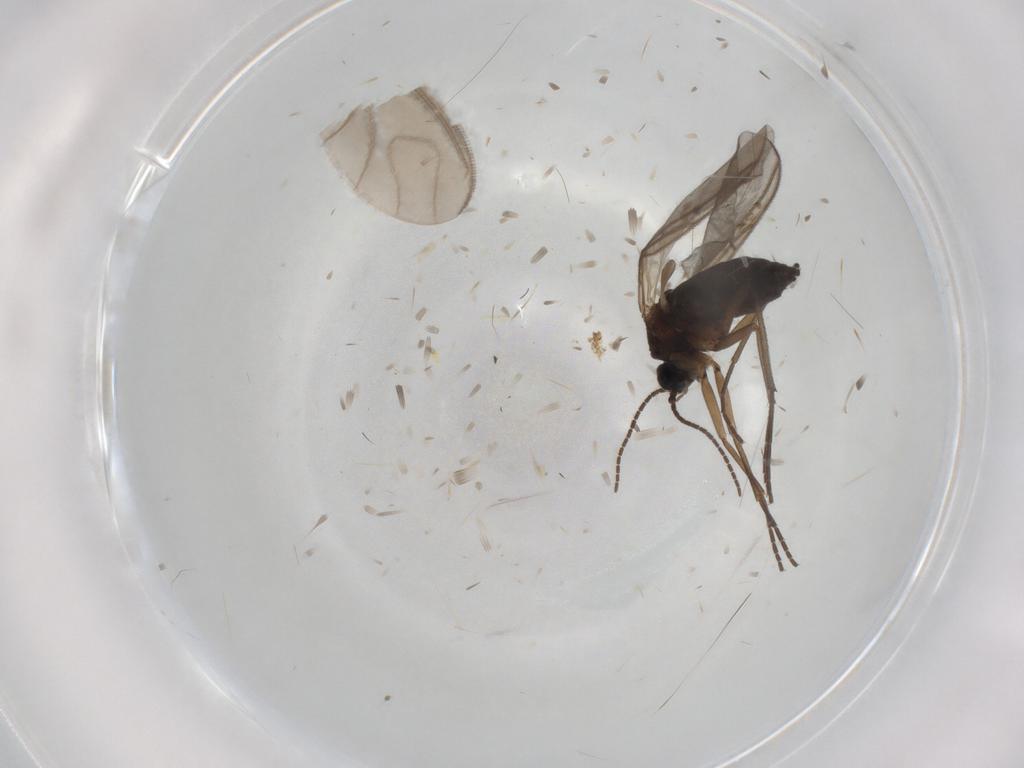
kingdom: Animalia
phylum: Arthropoda
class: Insecta
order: Diptera
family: Sciaridae
